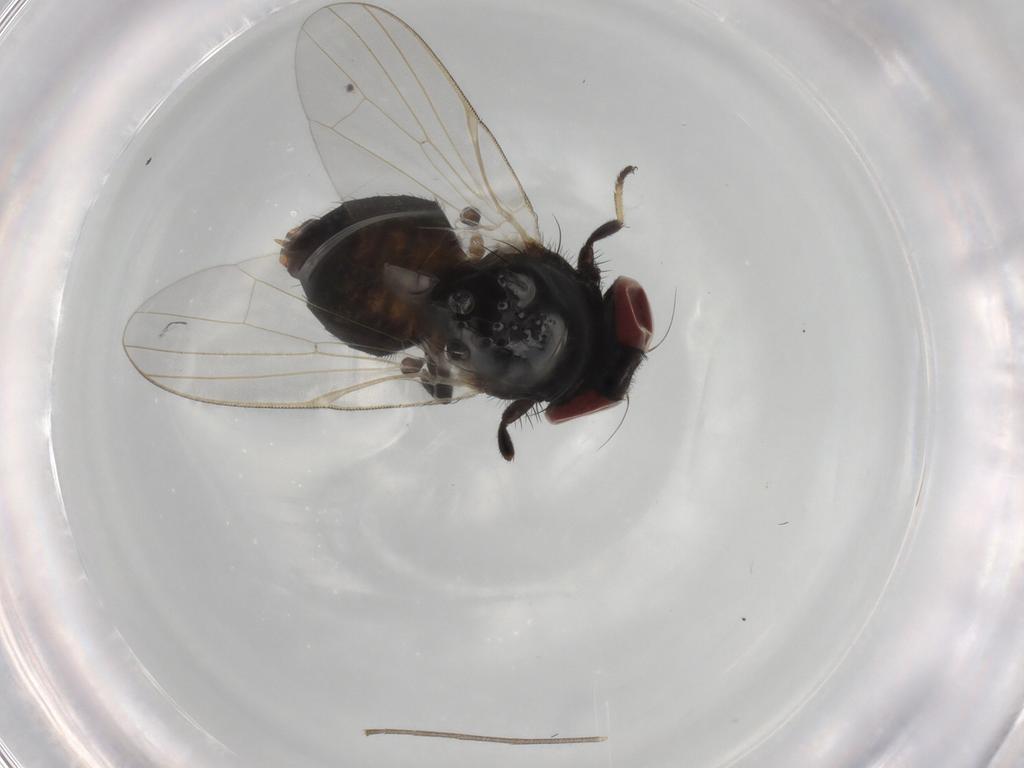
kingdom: Animalia
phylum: Arthropoda
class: Insecta
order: Diptera
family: Lonchaeidae
